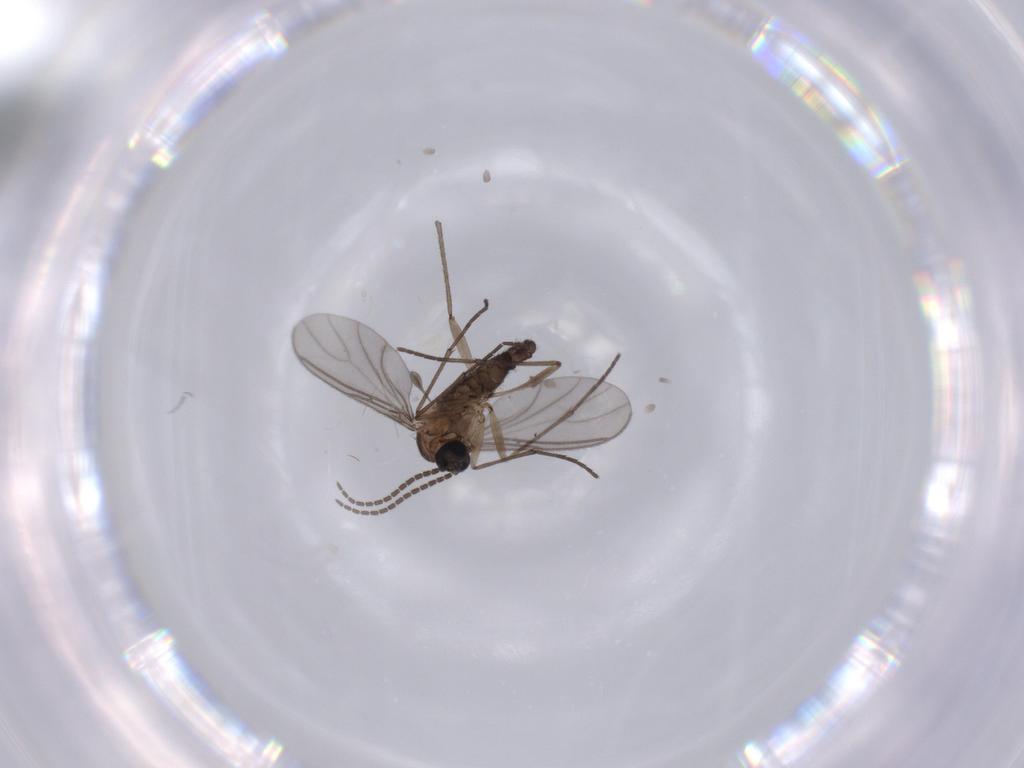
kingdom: Animalia
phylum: Arthropoda
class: Insecta
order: Diptera
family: Sciaridae
